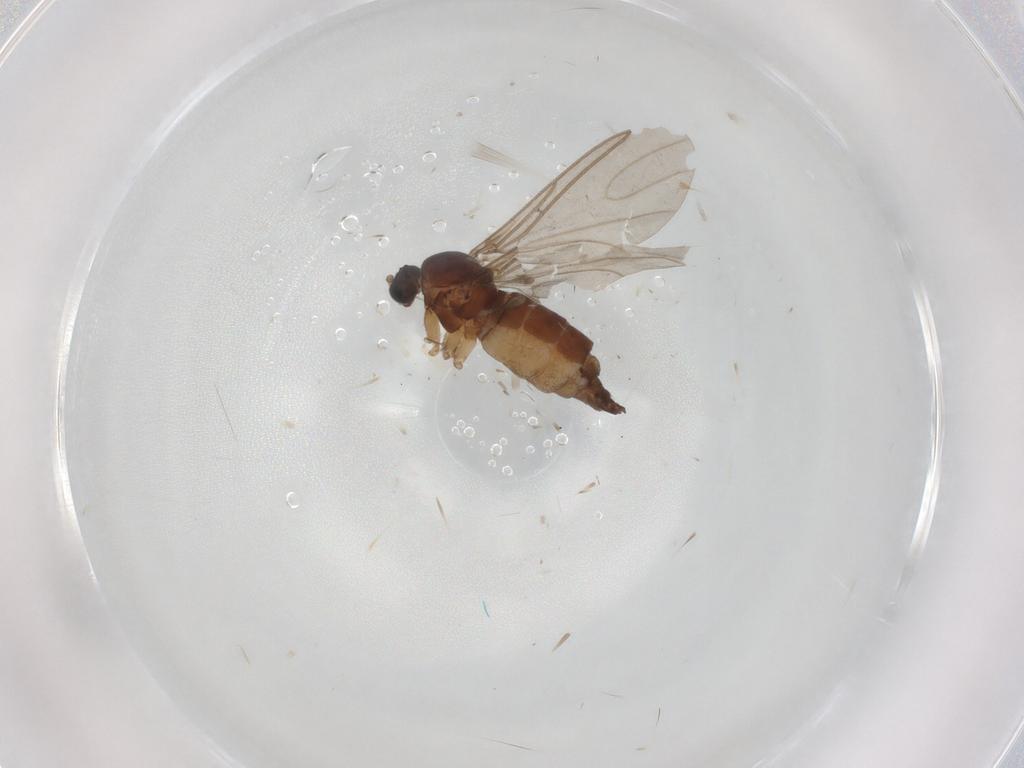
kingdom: Animalia
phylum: Arthropoda
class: Insecta
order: Diptera
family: Sciaridae
